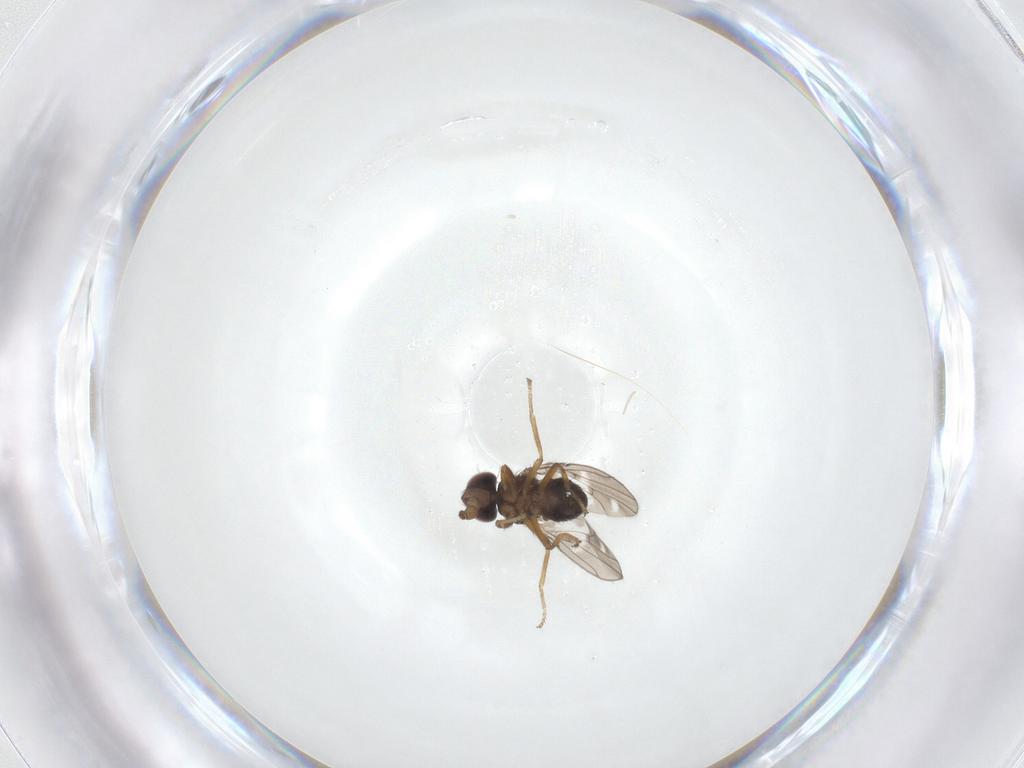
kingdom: Animalia
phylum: Arthropoda
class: Insecta
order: Diptera
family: Ephydridae
